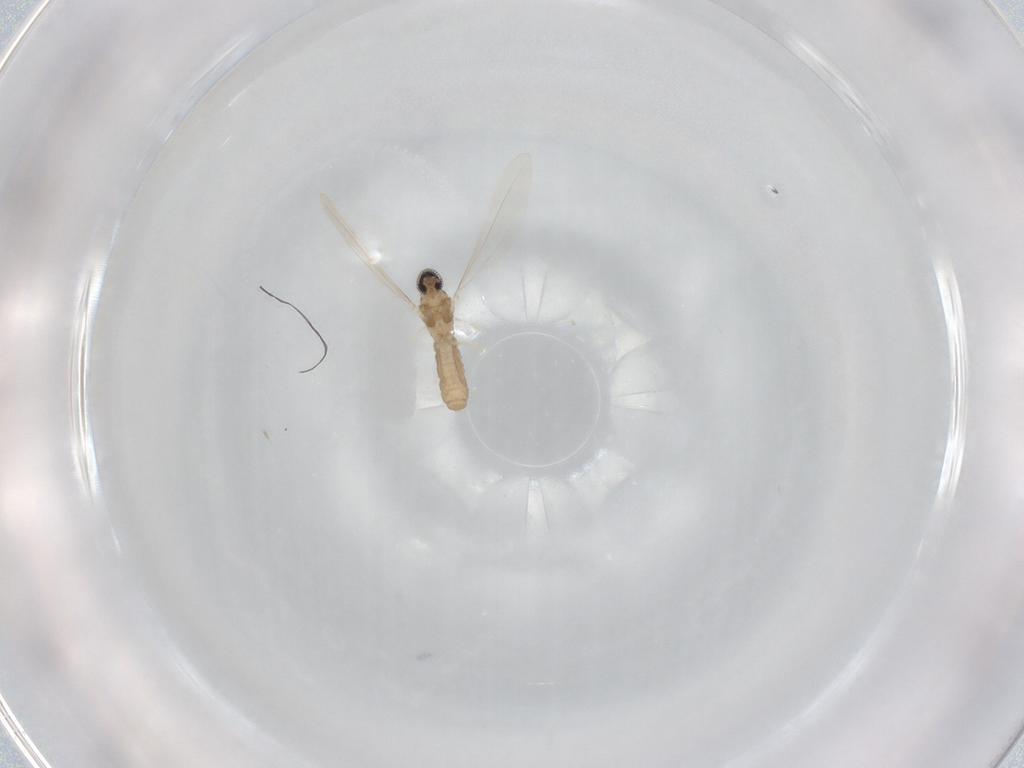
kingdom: Animalia
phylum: Arthropoda
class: Insecta
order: Diptera
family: Cecidomyiidae
